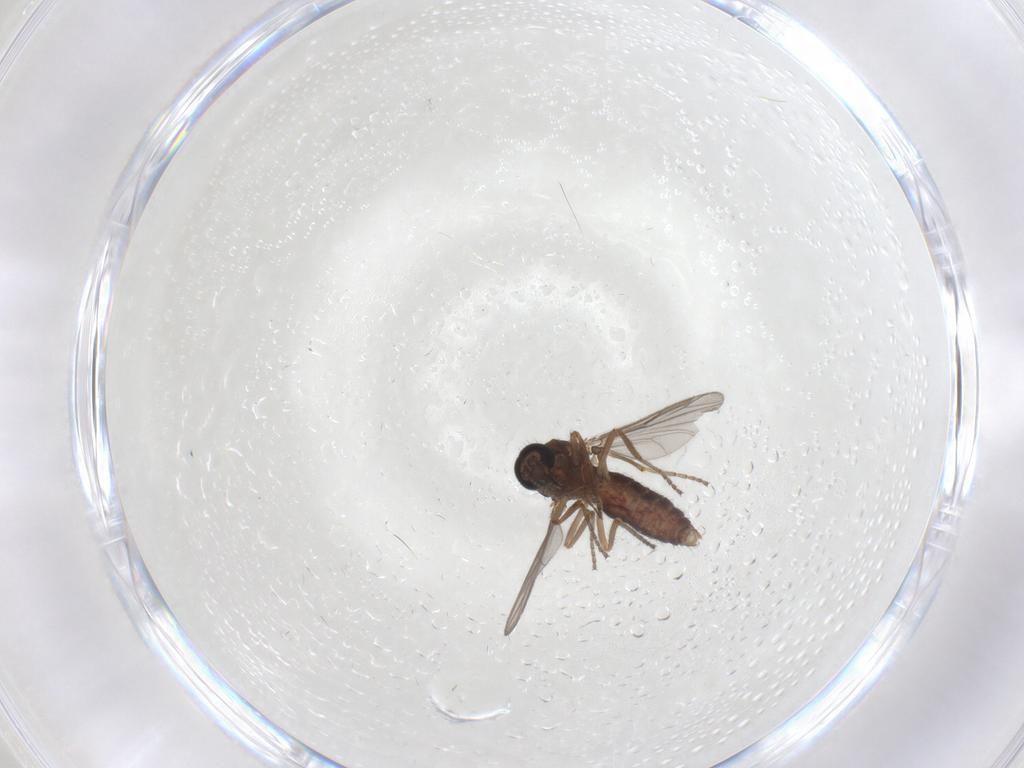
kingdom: Animalia
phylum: Arthropoda
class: Insecta
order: Diptera
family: Ceratopogonidae
